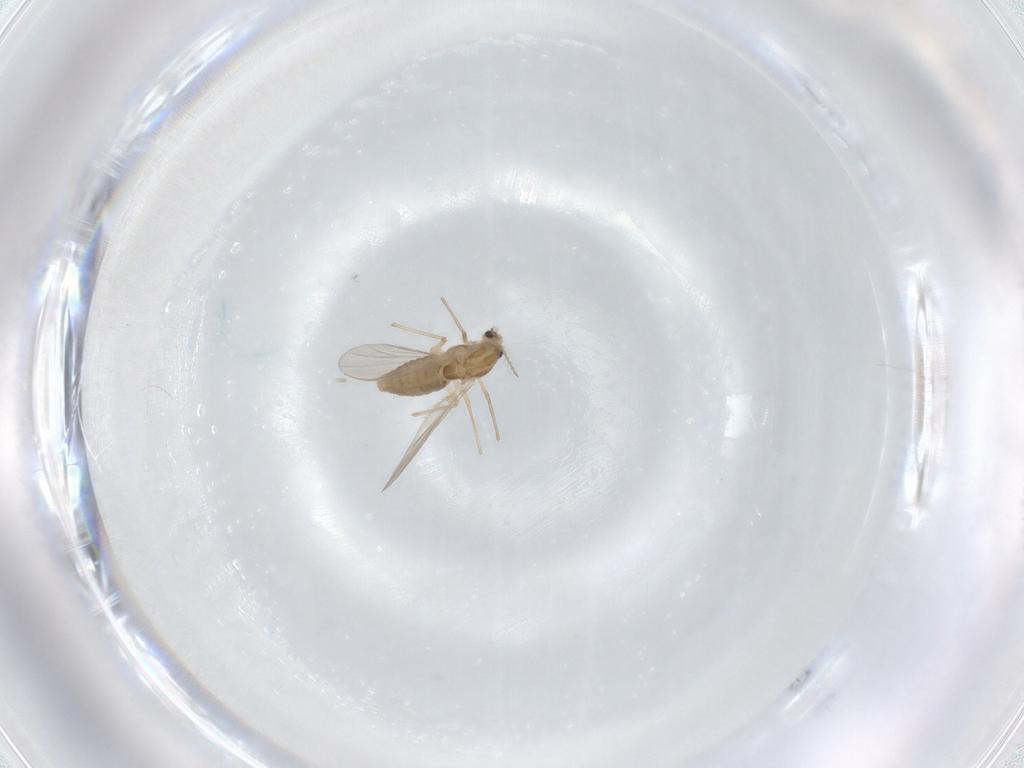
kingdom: Animalia
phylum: Arthropoda
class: Insecta
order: Diptera
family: Chironomidae
